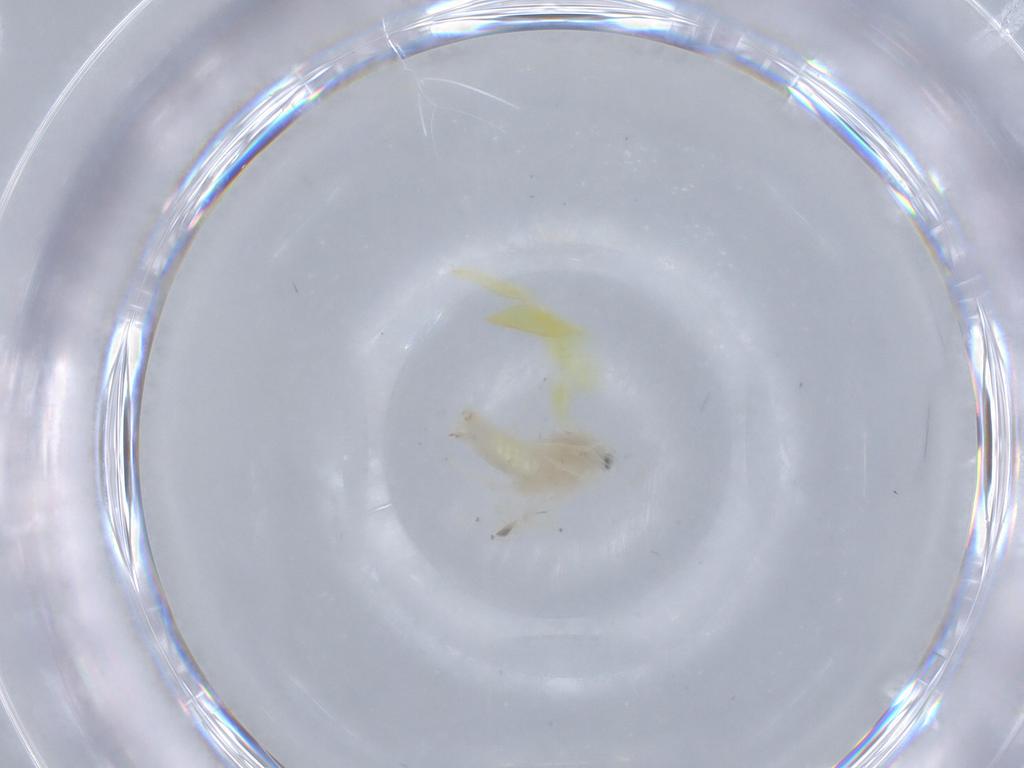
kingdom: Animalia
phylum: Arthropoda
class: Insecta
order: Hemiptera
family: Cicadellidae
